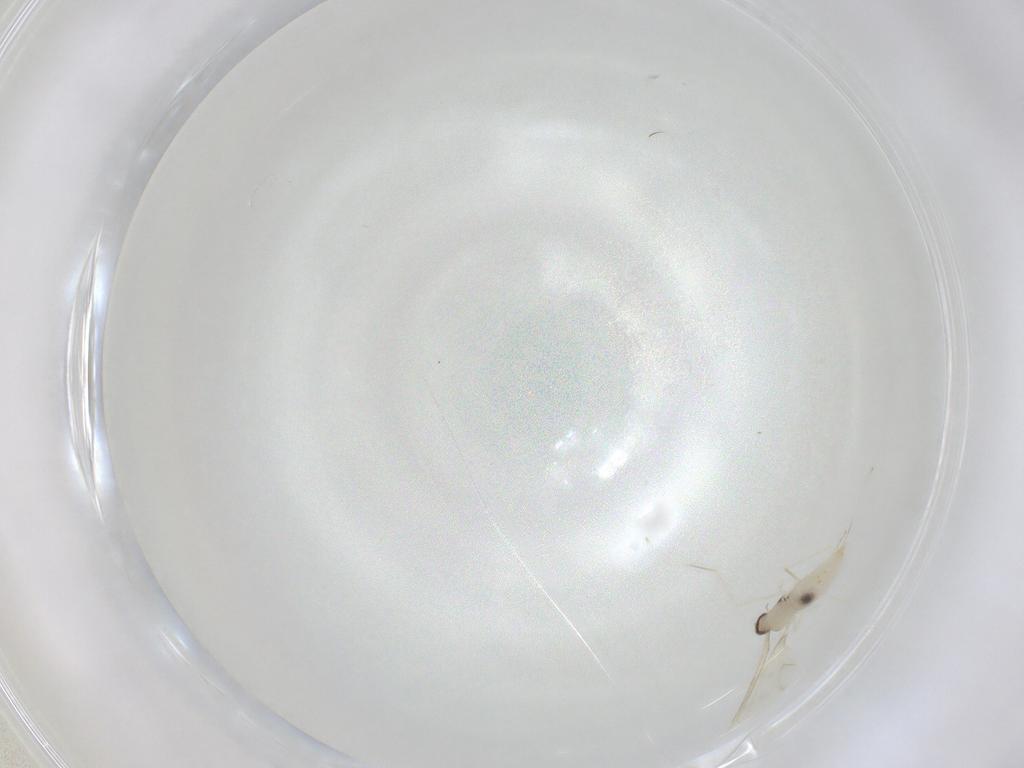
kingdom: Animalia
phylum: Arthropoda
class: Insecta
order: Diptera
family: Cecidomyiidae
